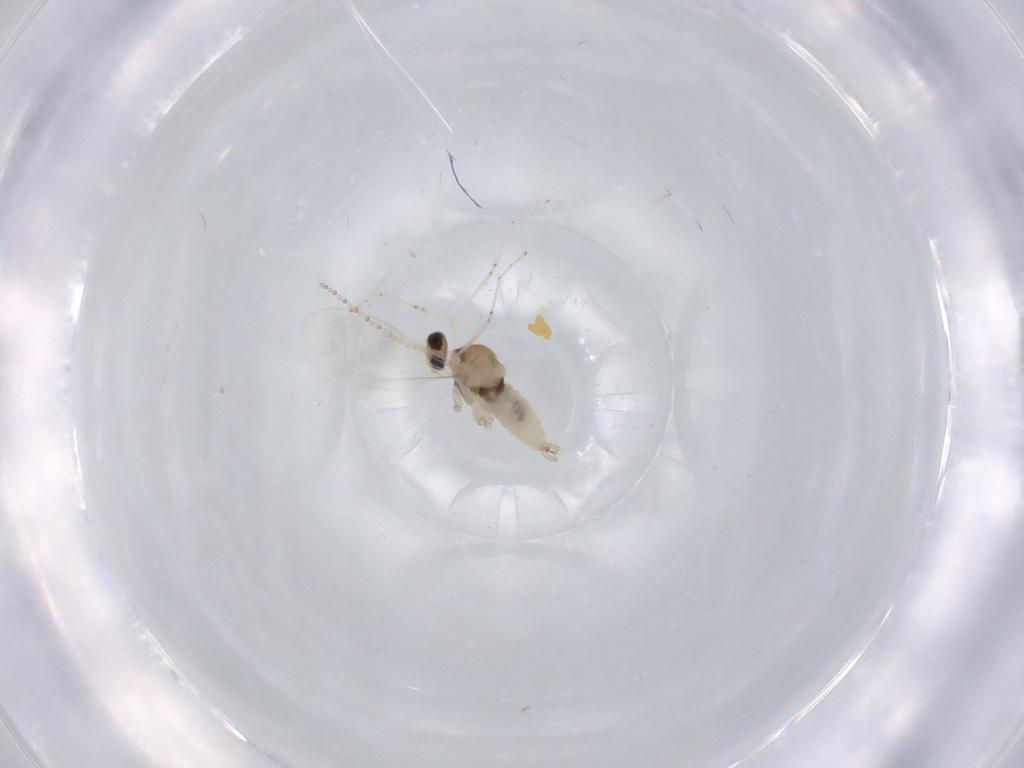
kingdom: Animalia
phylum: Arthropoda
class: Insecta
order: Diptera
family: Cecidomyiidae
